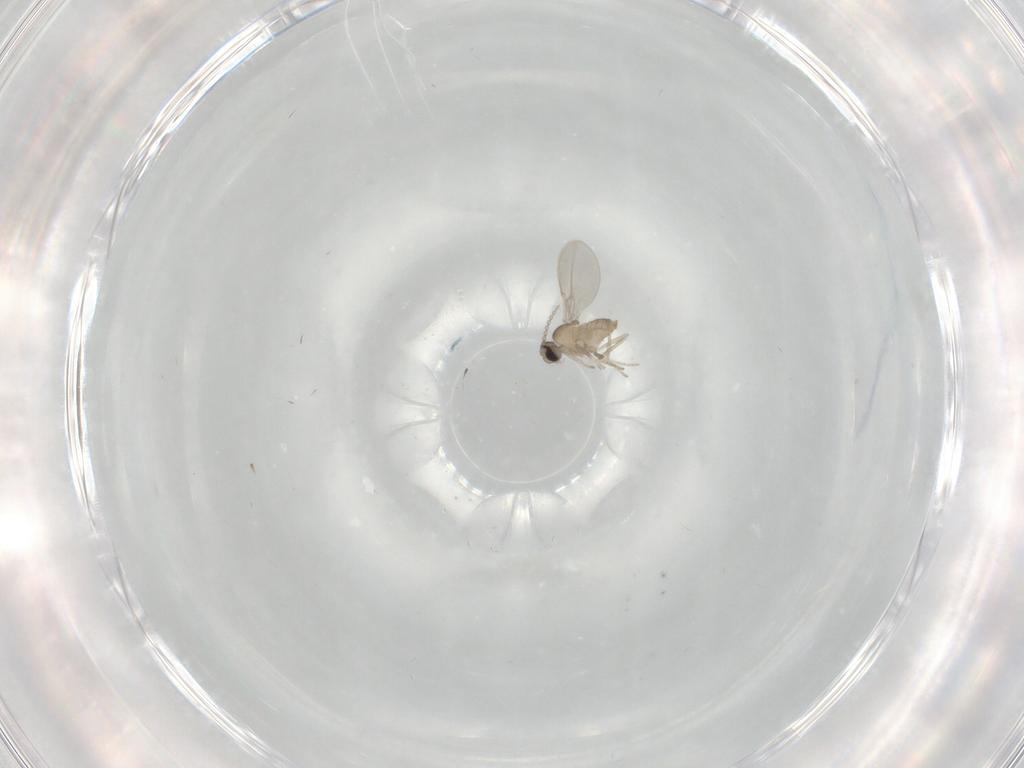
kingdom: Animalia
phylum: Arthropoda
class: Insecta
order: Diptera
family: Cecidomyiidae
